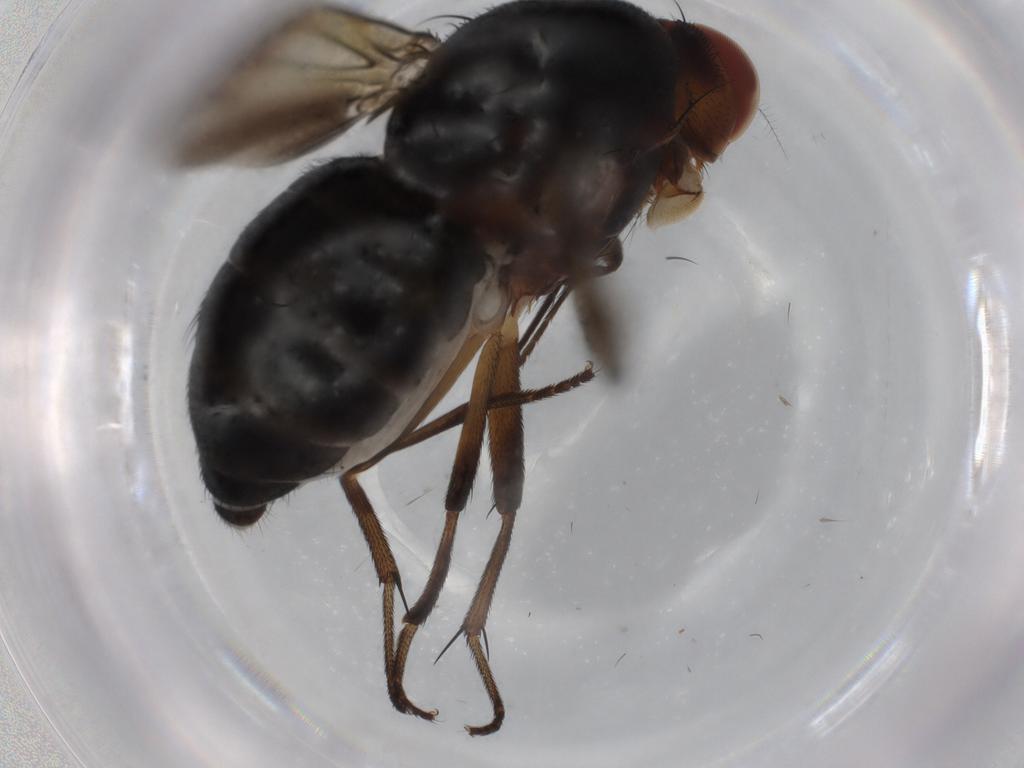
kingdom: Animalia
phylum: Arthropoda
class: Insecta
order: Diptera
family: Lauxaniidae
